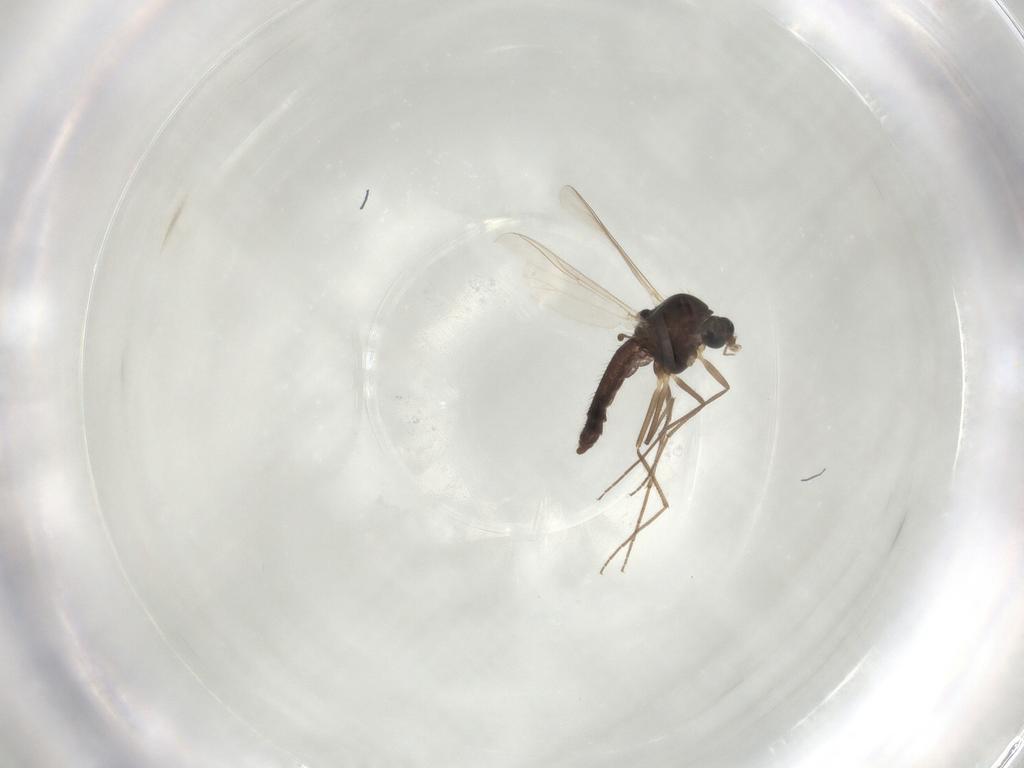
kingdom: Animalia
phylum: Arthropoda
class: Insecta
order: Diptera
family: Chironomidae
